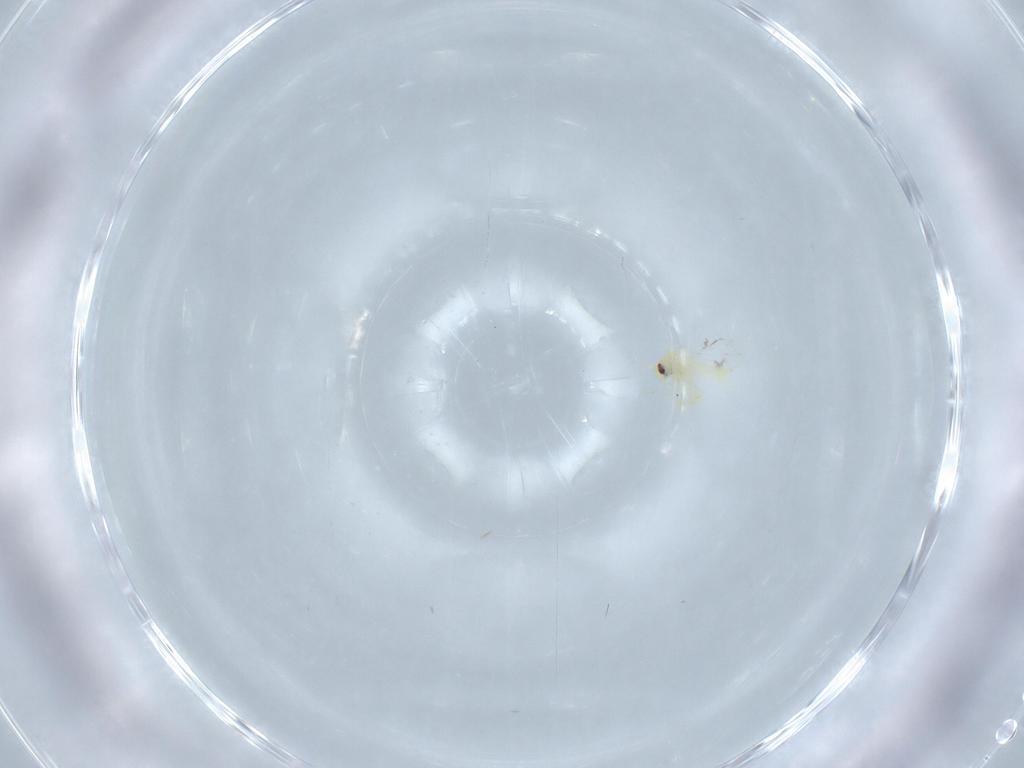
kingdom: Animalia
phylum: Arthropoda
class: Insecta
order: Hemiptera
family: Aleyrodidae
